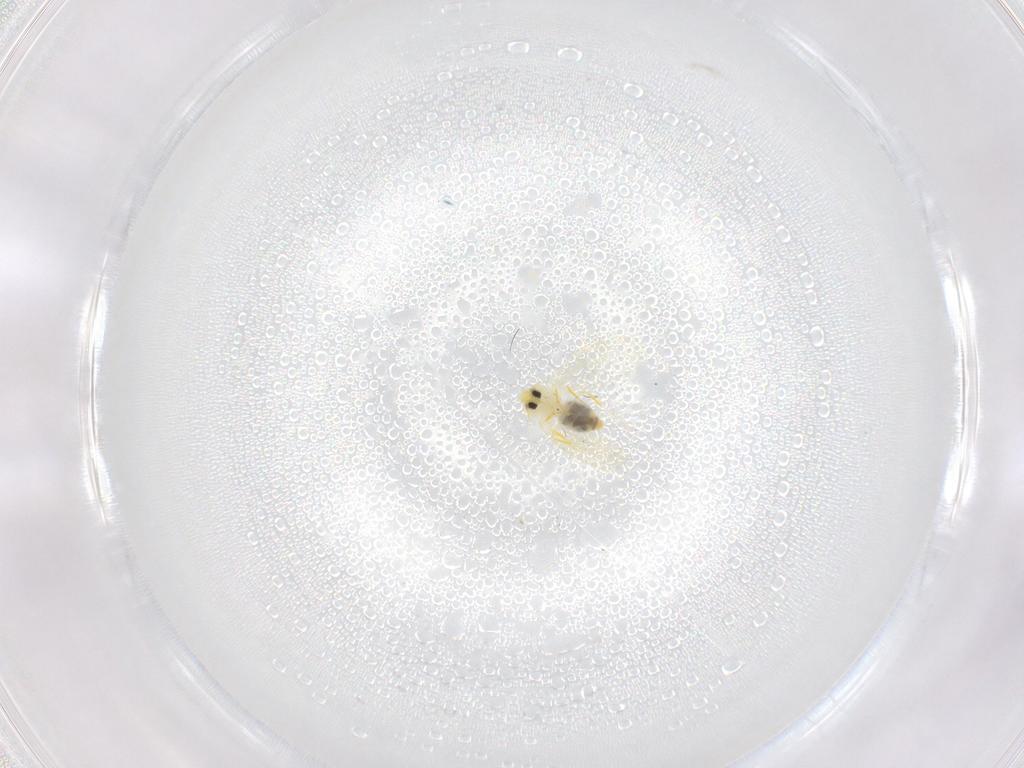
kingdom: Animalia
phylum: Arthropoda
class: Insecta
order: Hemiptera
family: Aleyrodidae
